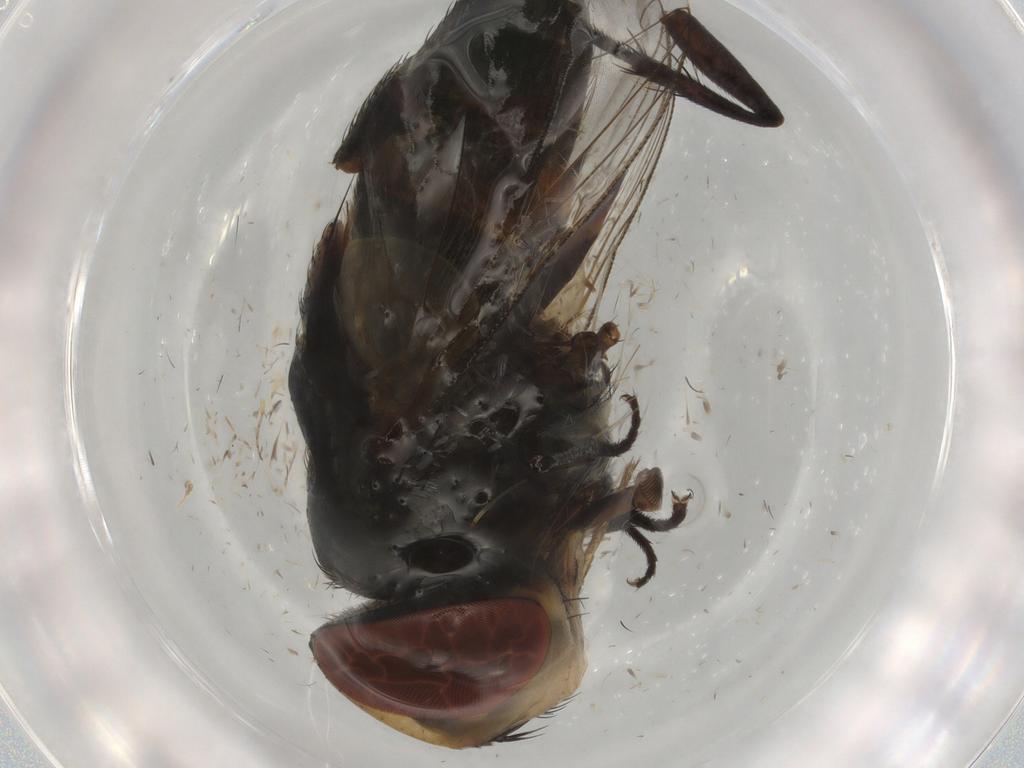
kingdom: Animalia
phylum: Arthropoda
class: Insecta
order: Diptera
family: Sarcophagidae
